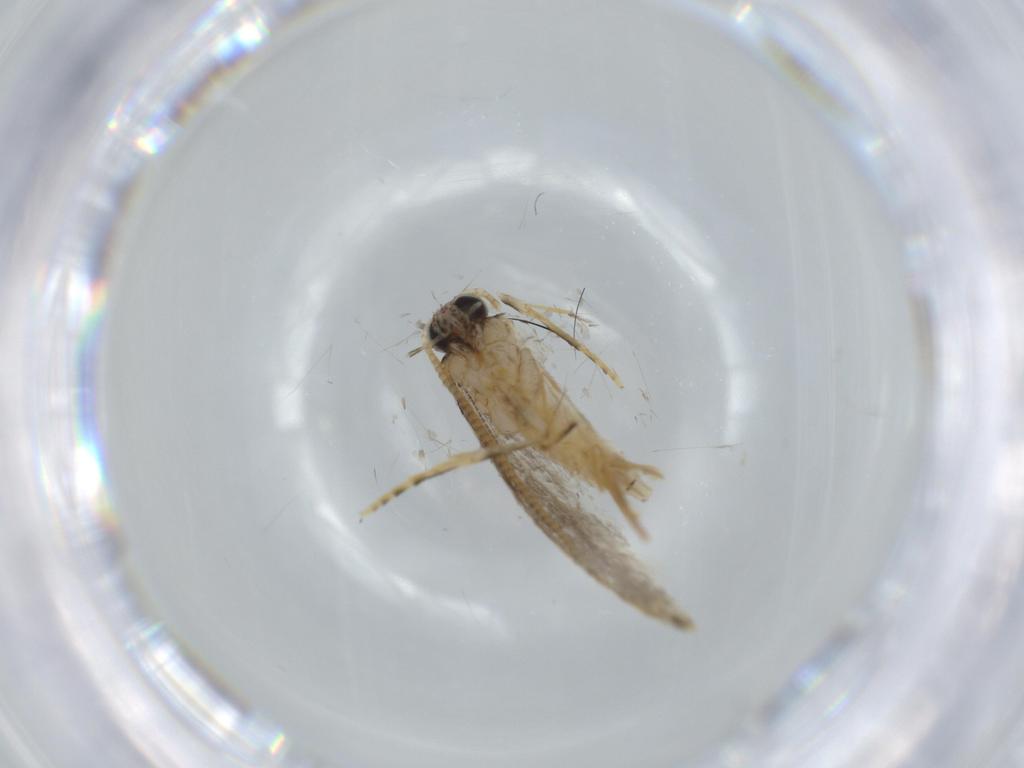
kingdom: Animalia
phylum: Arthropoda
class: Insecta
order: Lepidoptera
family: Tineidae
